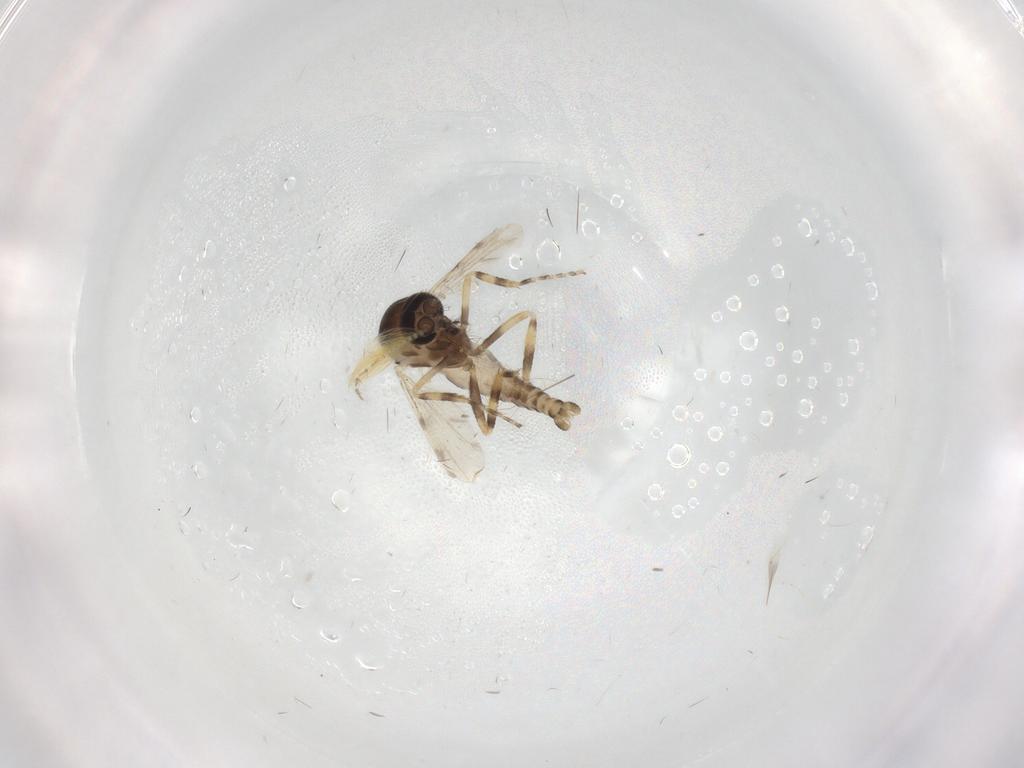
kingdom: Animalia
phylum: Arthropoda
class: Insecta
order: Diptera
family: Ceratopogonidae
